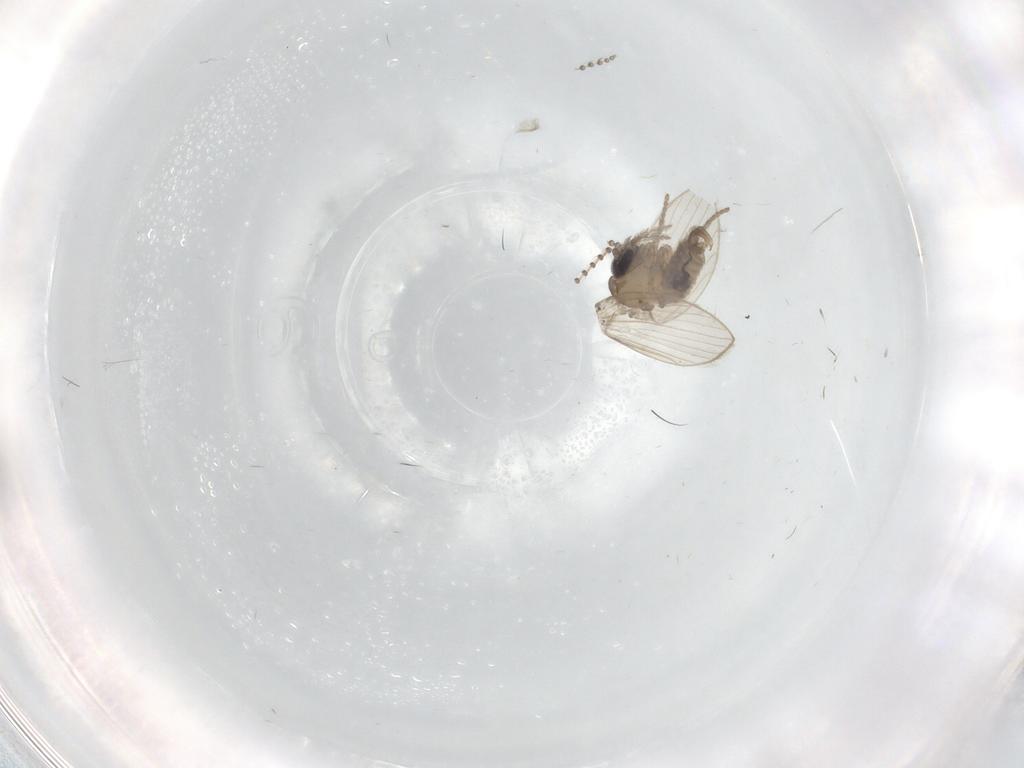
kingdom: Animalia
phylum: Arthropoda
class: Insecta
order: Diptera
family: Psychodidae
